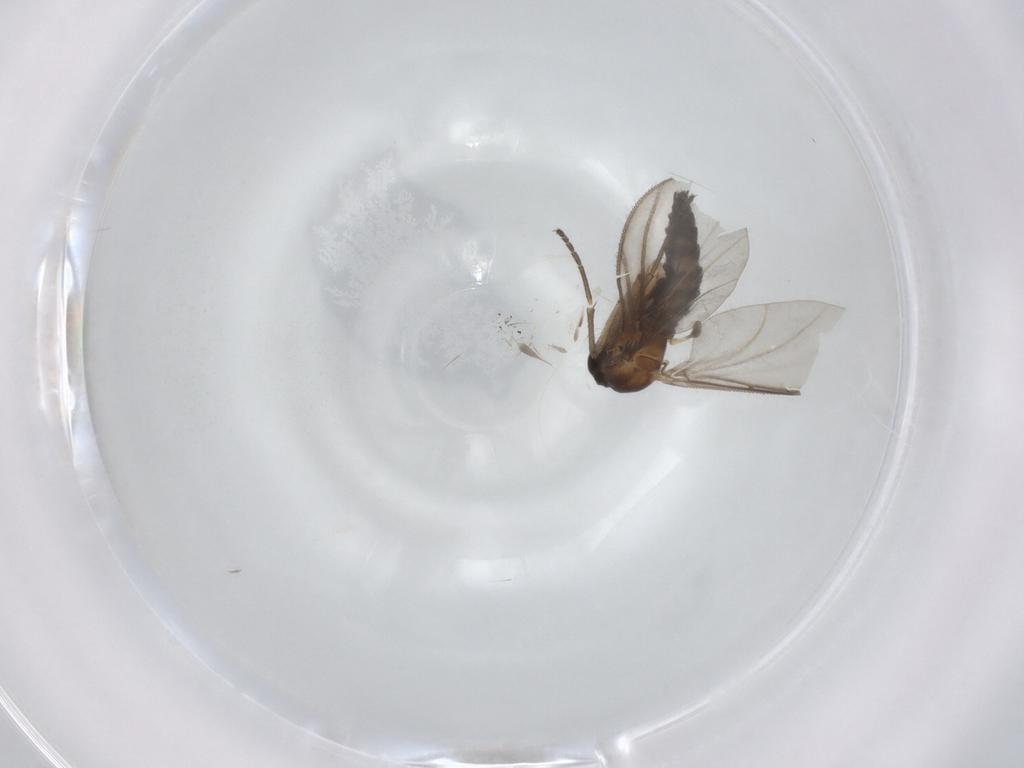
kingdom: Animalia
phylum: Arthropoda
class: Insecta
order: Diptera
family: Sciaridae
